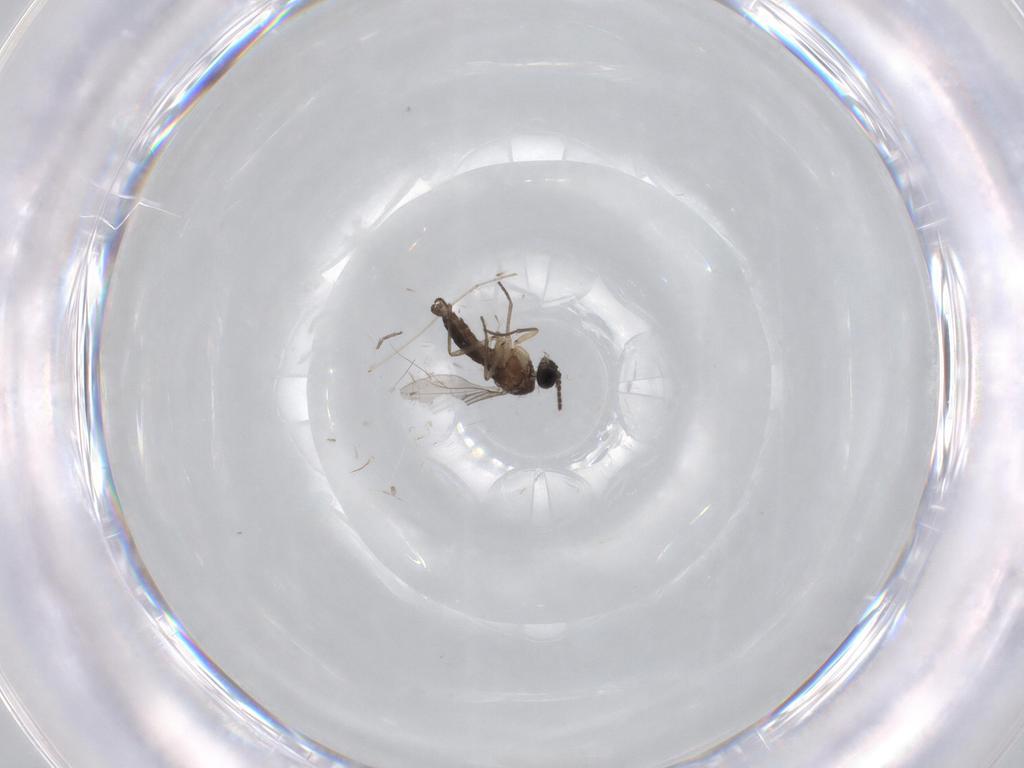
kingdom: Animalia
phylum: Arthropoda
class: Insecta
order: Diptera
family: Sciaridae
